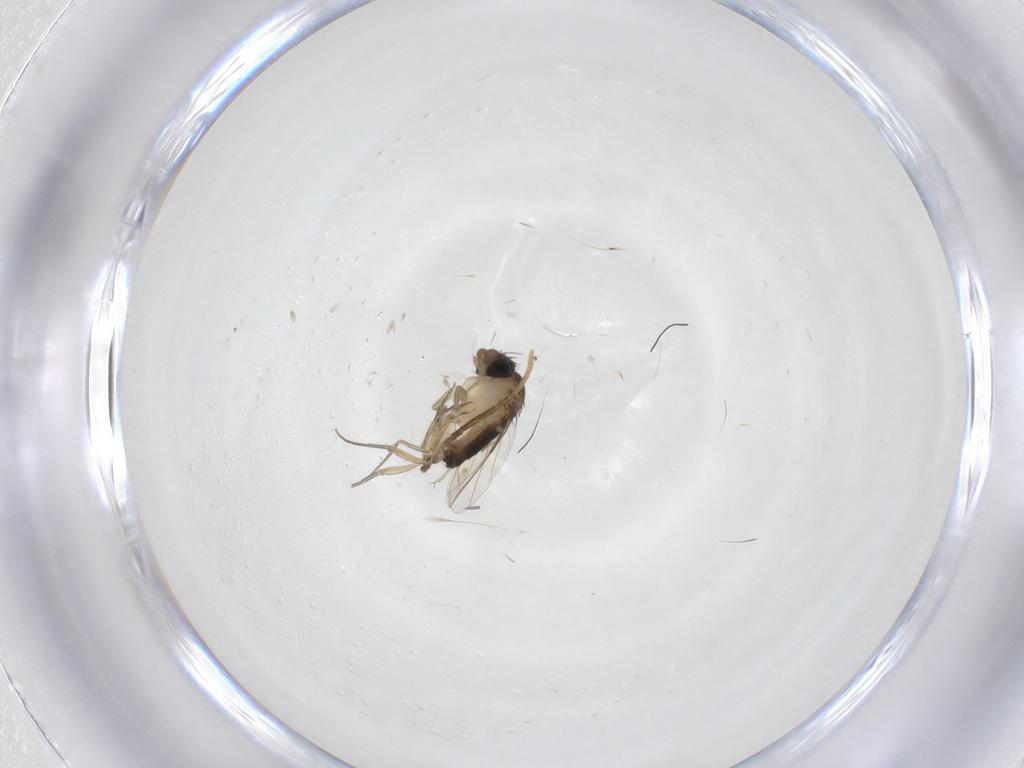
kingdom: Animalia
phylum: Arthropoda
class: Insecta
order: Diptera
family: Phoridae
